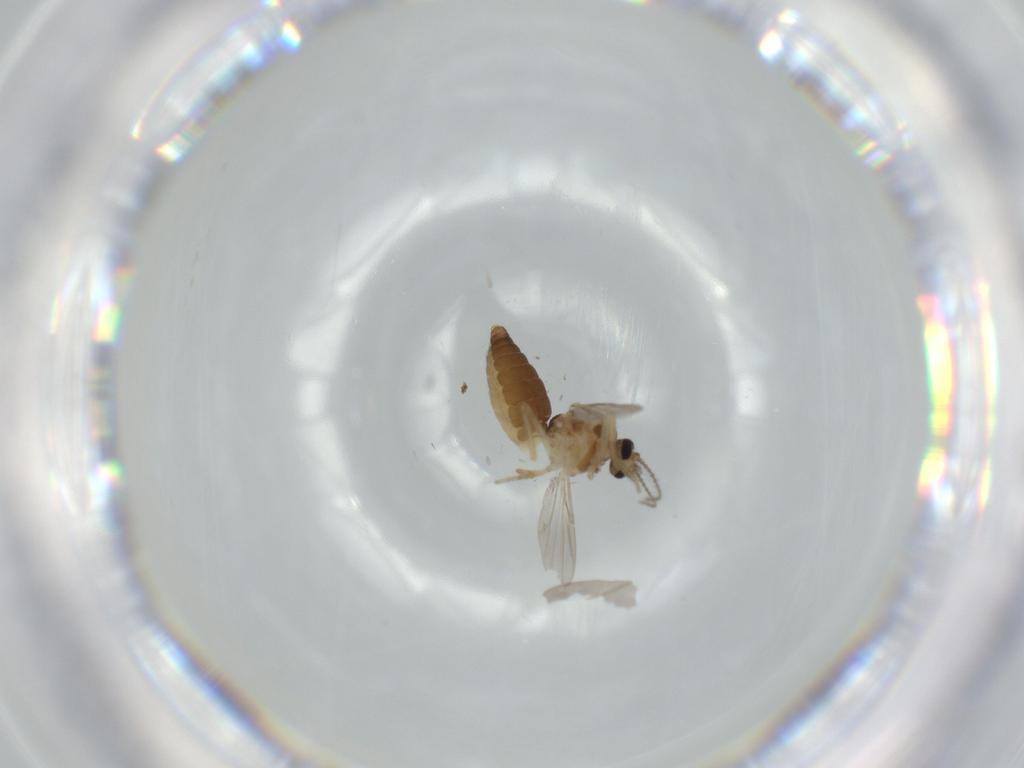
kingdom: Animalia
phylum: Arthropoda
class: Insecta
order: Diptera
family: Ceratopogonidae
